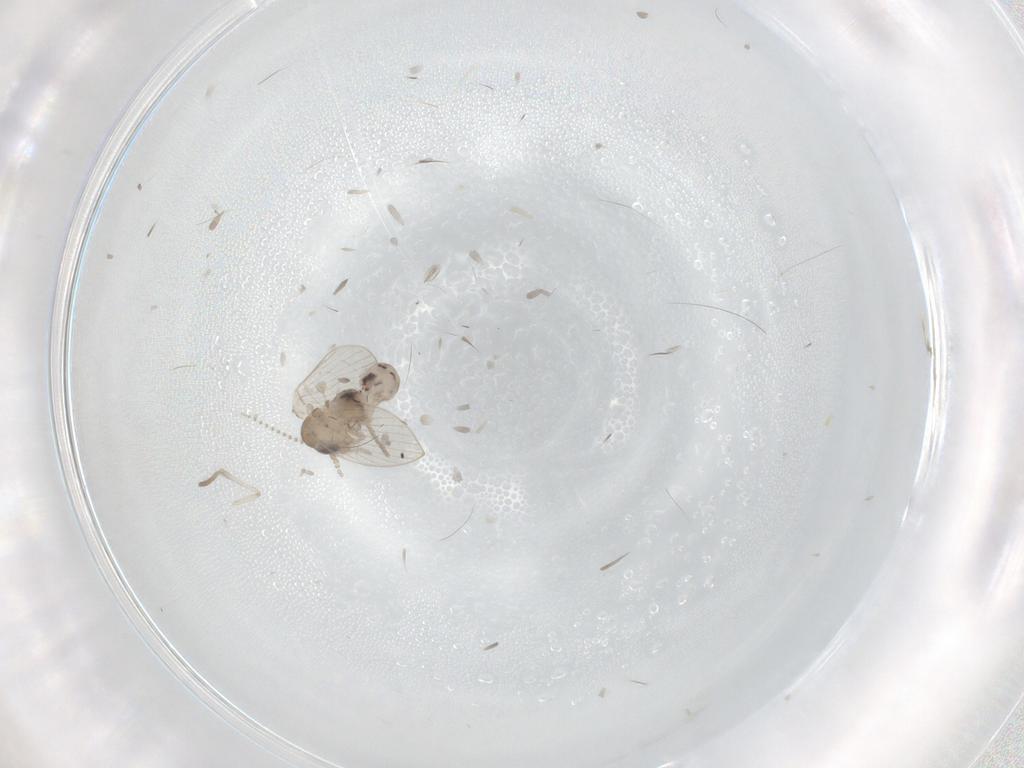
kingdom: Animalia
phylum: Arthropoda
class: Insecta
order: Diptera
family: Psychodidae
